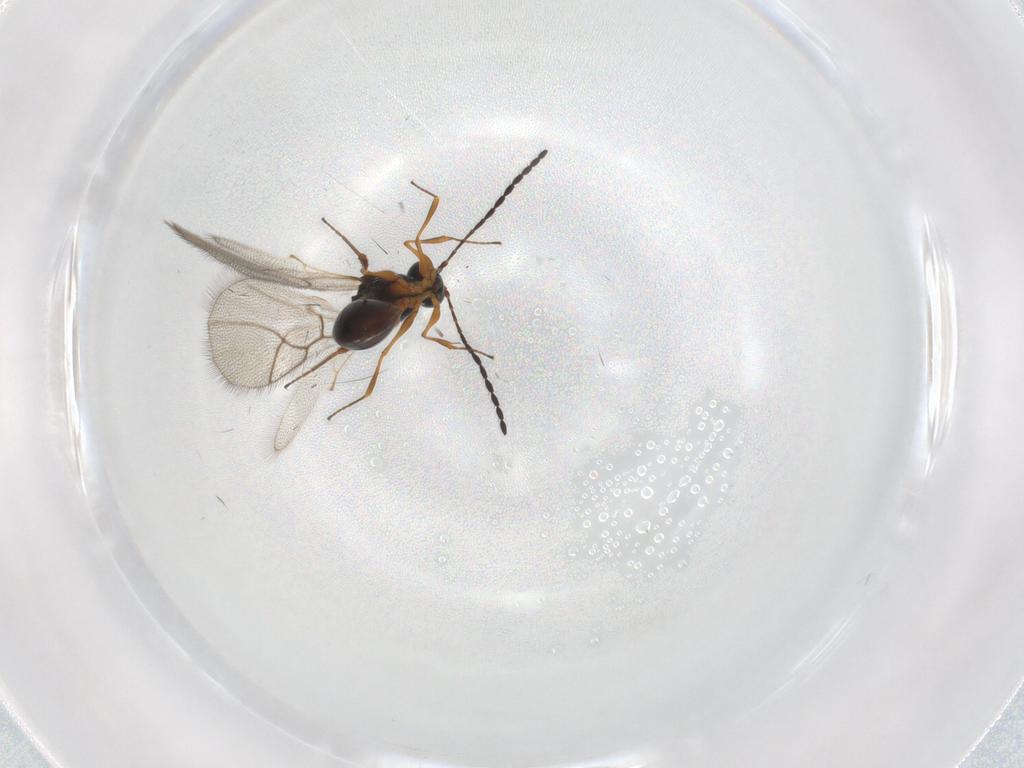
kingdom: Animalia
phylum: Arthropoda
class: Insecta
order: Hymenoptera
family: Figitidae
